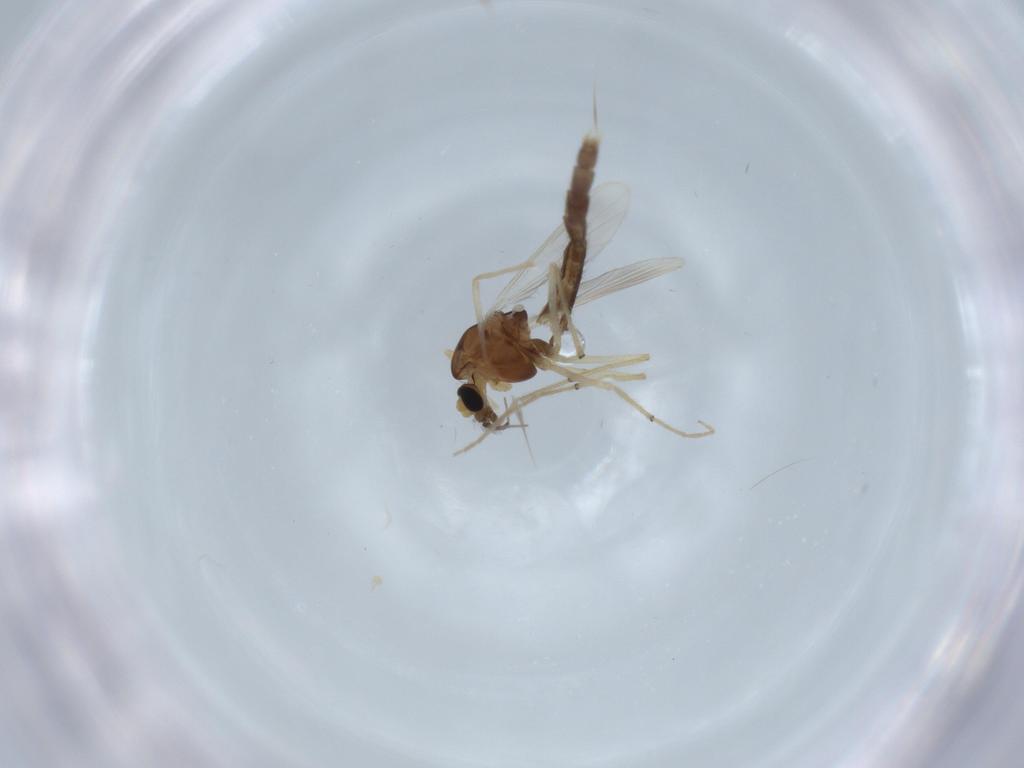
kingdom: Animalia
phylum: Arthropoda
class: Insecta
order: Diptera
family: Chironomidae
